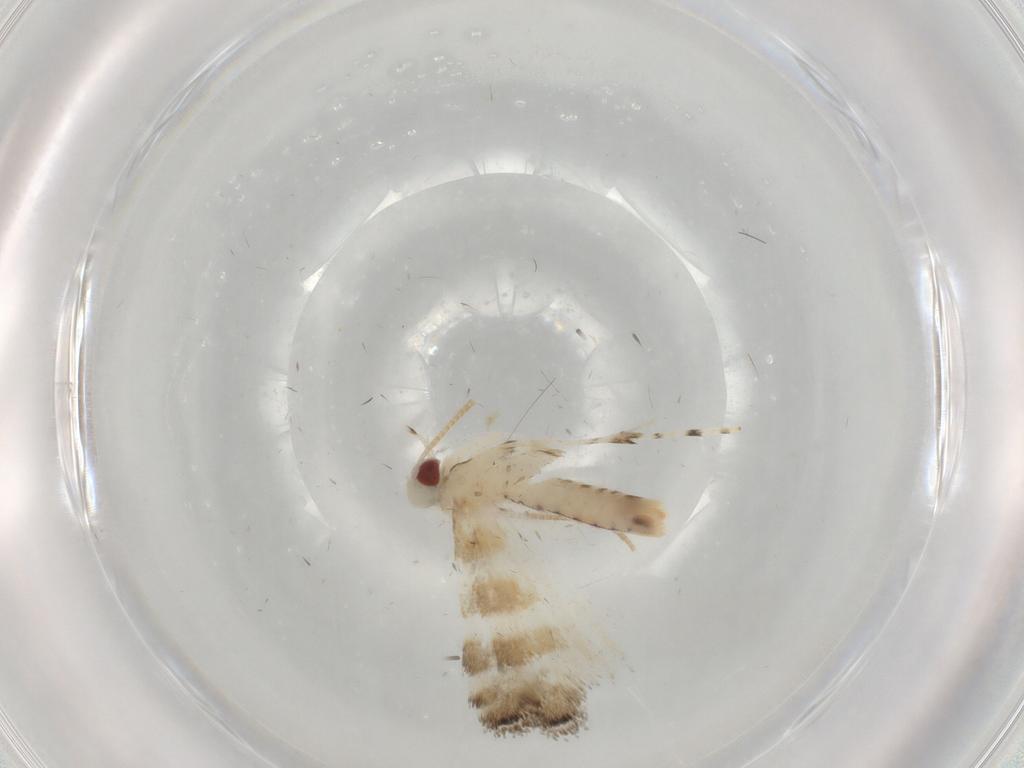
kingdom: Animalia
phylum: Arthropoda
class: Insecta
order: Lepidoptera
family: Gracillariidae
